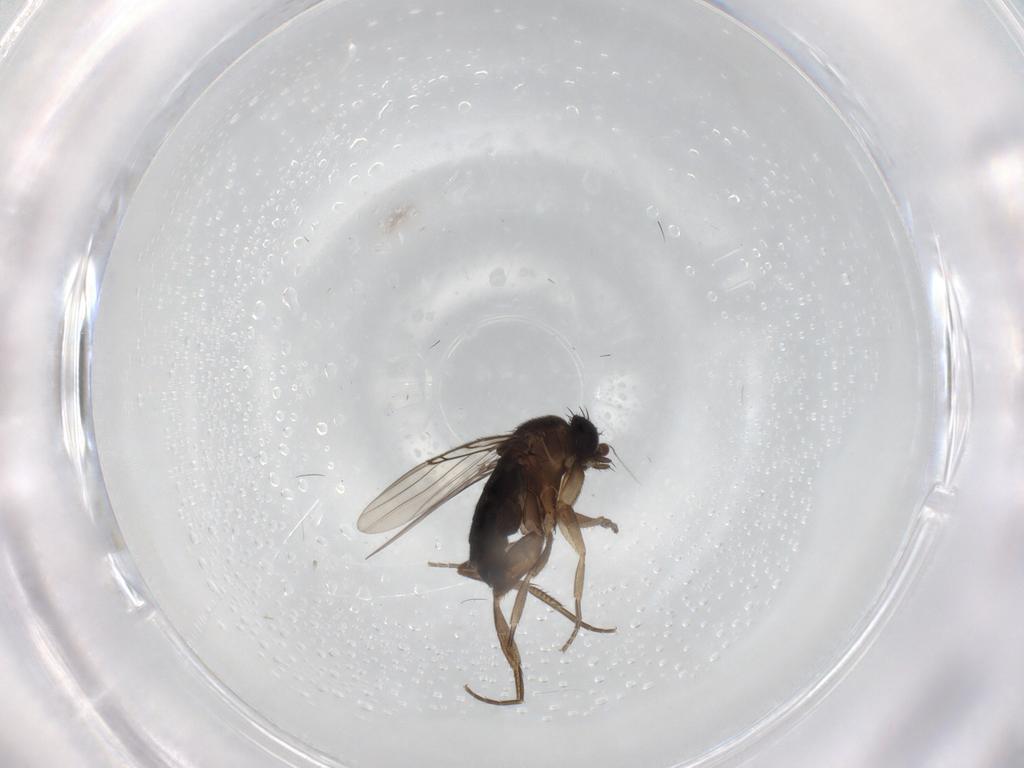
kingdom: Animalia
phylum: Arthropoda
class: Insecta
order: Diptera
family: Phoridae
